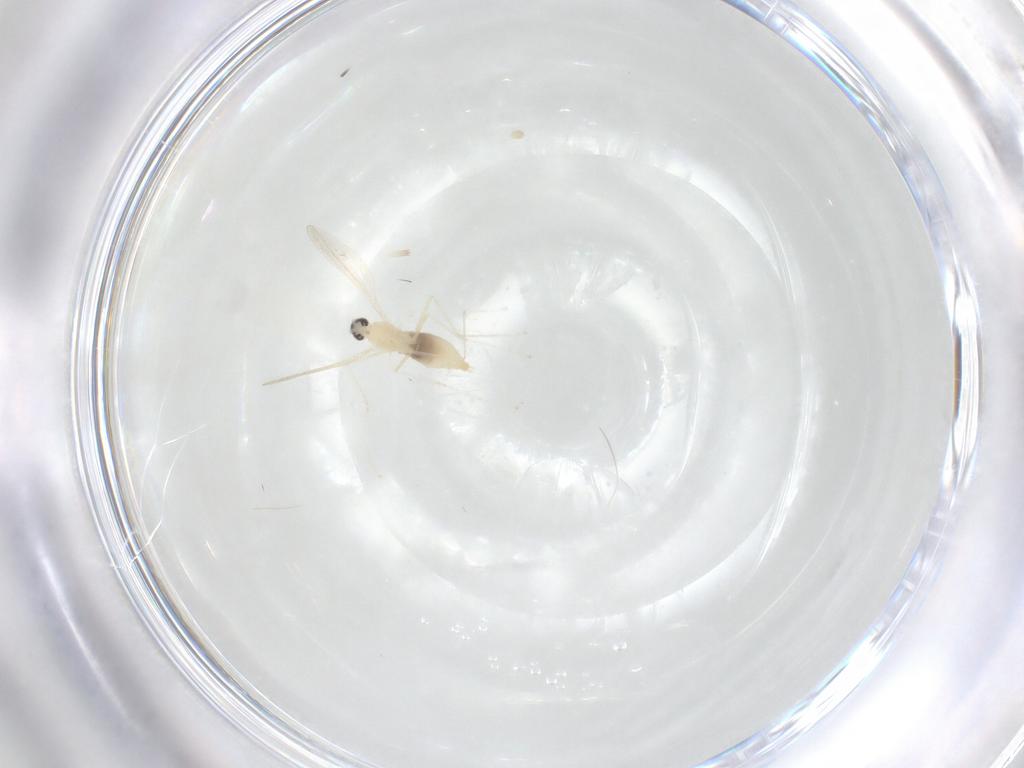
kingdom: Animalia
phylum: Arthropoda
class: Insecta
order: Diptera
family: Cecidomyiidae
